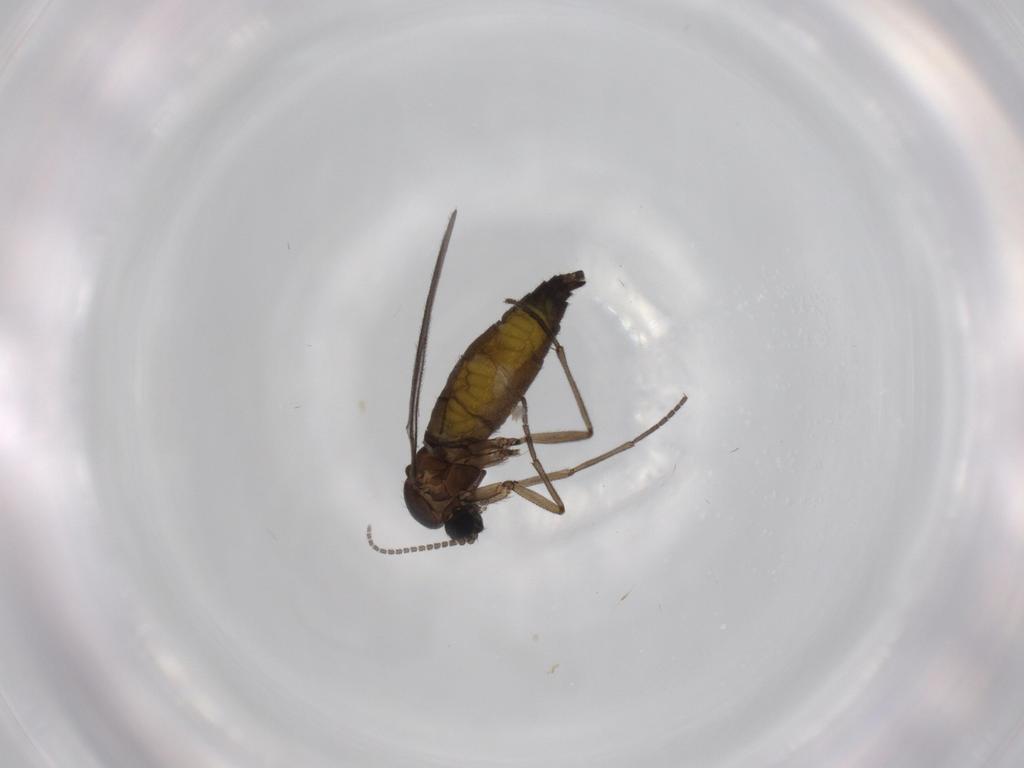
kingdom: Animalia
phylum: Arthropoda
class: Insecta
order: Diptera
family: Sciaridae
